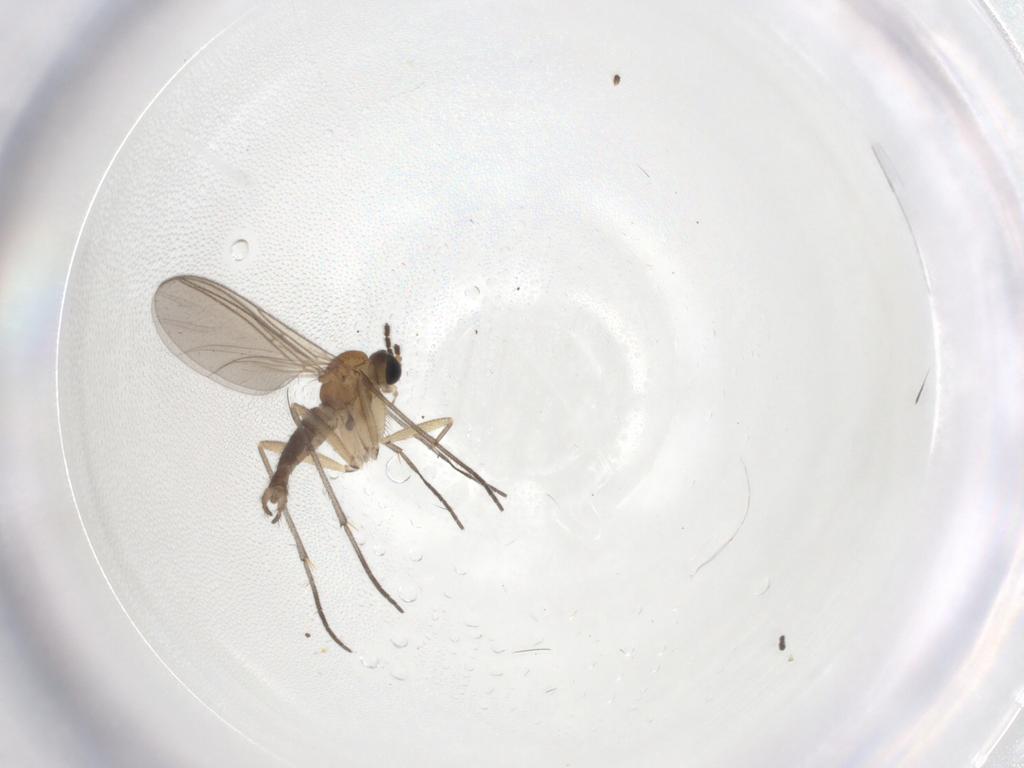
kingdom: Animalia
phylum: Arthropoda
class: Insecta
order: Diptera
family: Sciaridae
